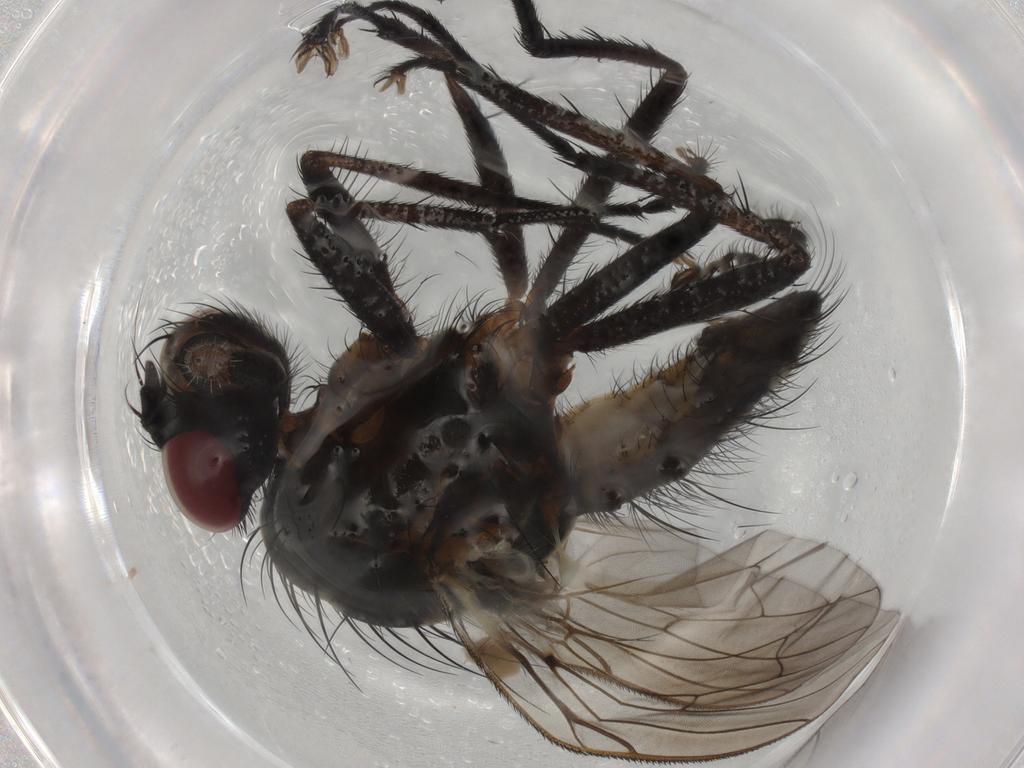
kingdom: Animalia
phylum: Arthropoda
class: Insecta
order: Diptera
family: Anthomyiidae
